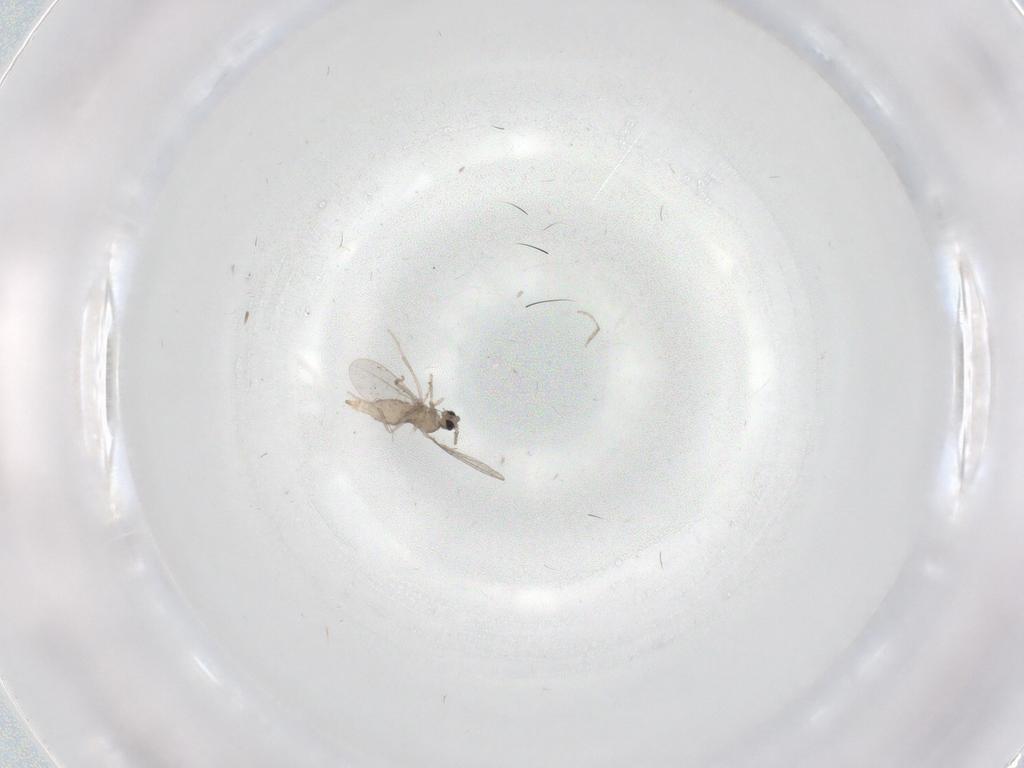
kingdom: Animalia
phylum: Arthropoda
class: Insecta
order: Diptera
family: Cecidomyiidae
